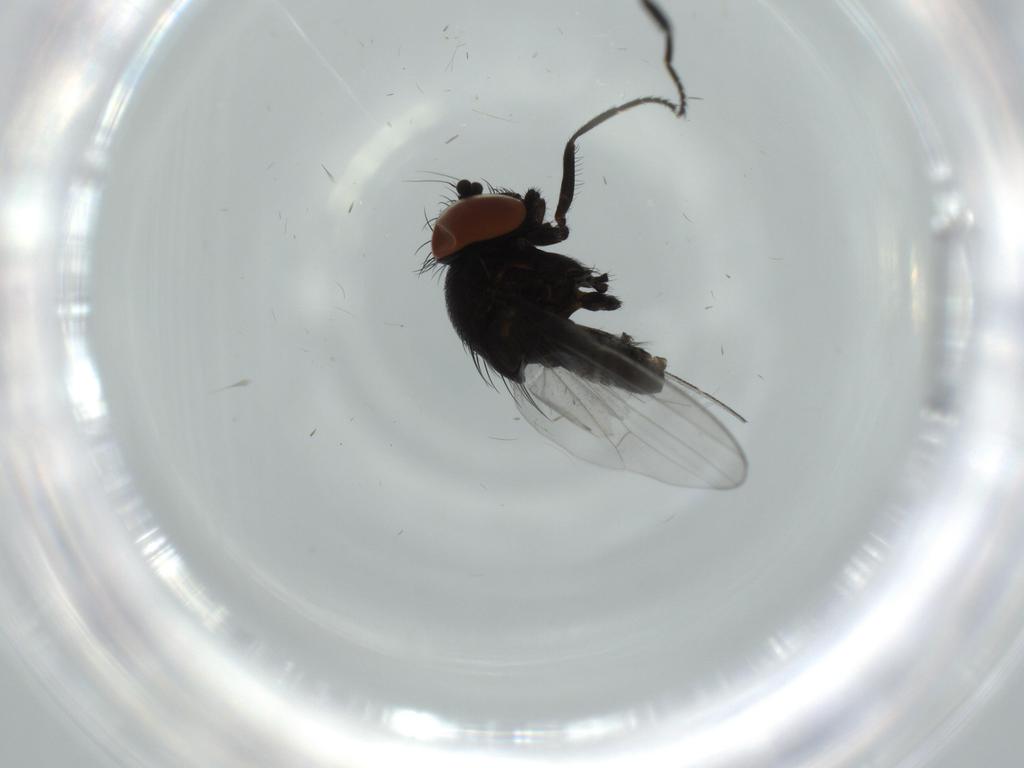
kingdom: Animalia
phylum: Arthropoda
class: Insecta
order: Diptera
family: Milichiidae
